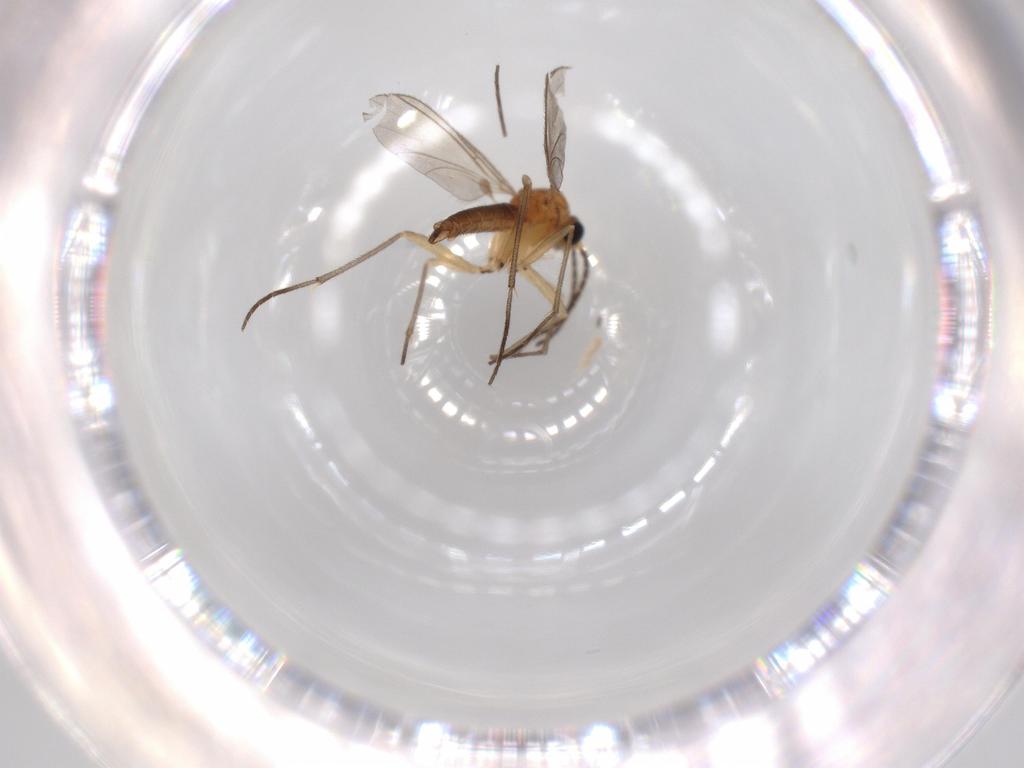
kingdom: Animalia
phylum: Arthropoda
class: Insecta
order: Diptera
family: Sciaridae
